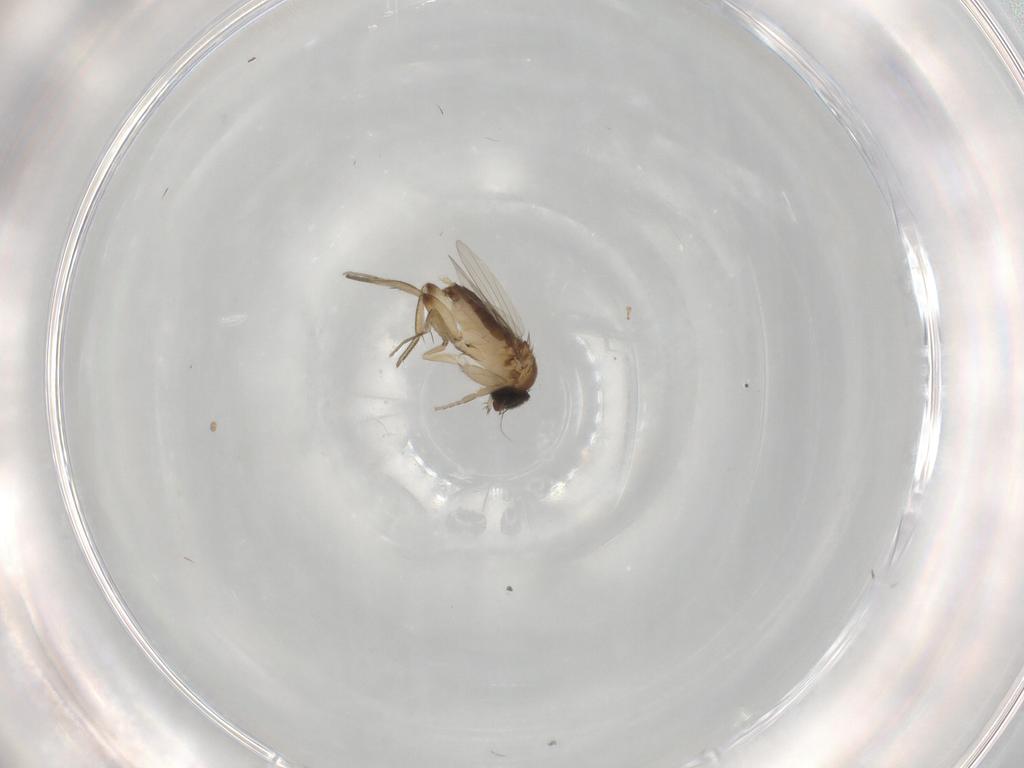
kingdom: Animalia
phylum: Arthropoda
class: Insecta
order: Diptera
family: Phoridae
